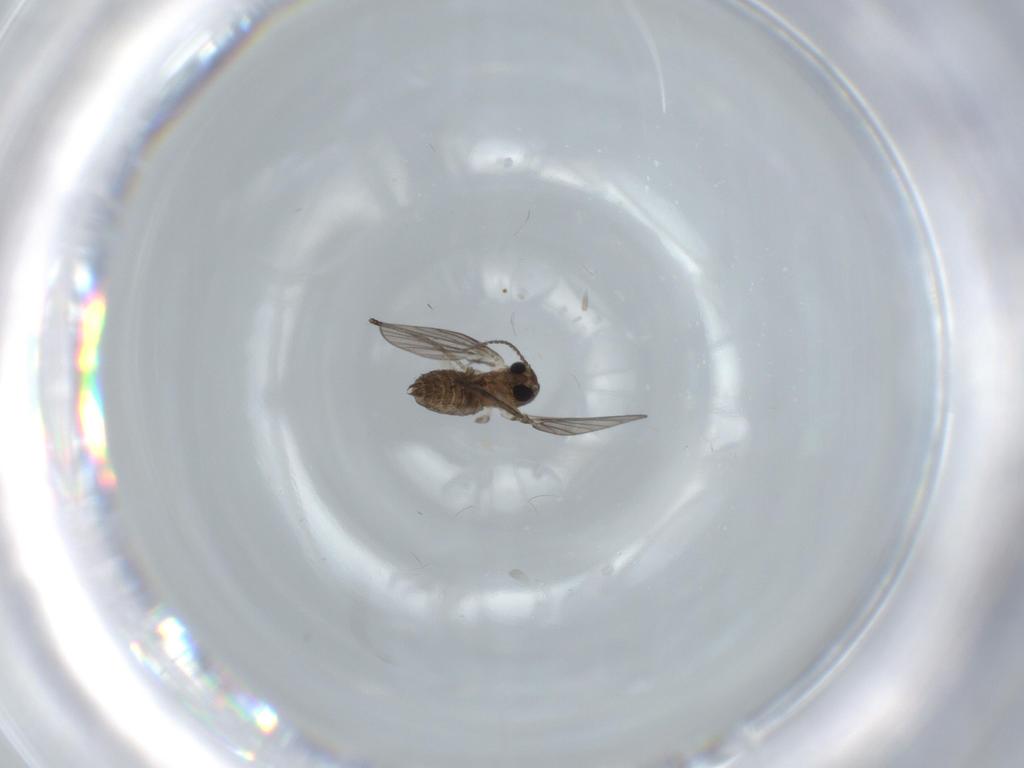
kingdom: Animalia
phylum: Arthropoda
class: Insecta
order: Diptera
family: Psychodidae
